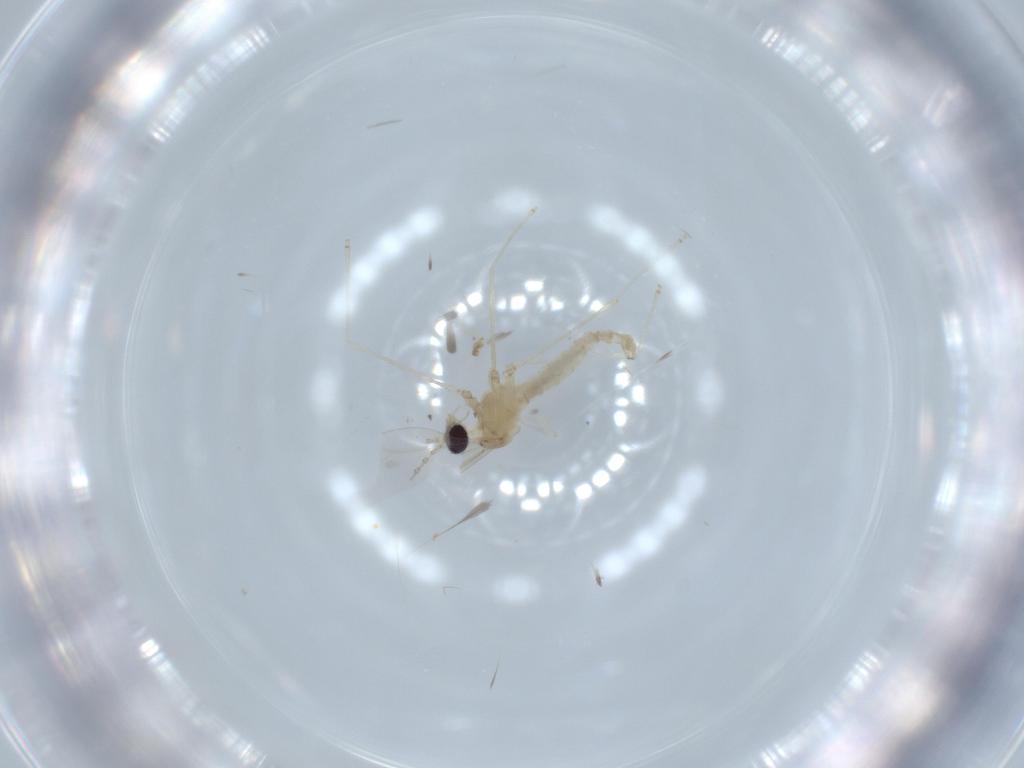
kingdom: Animalia
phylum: Arthropoda
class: Insecta
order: Diptera
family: Cecidomyiidae
